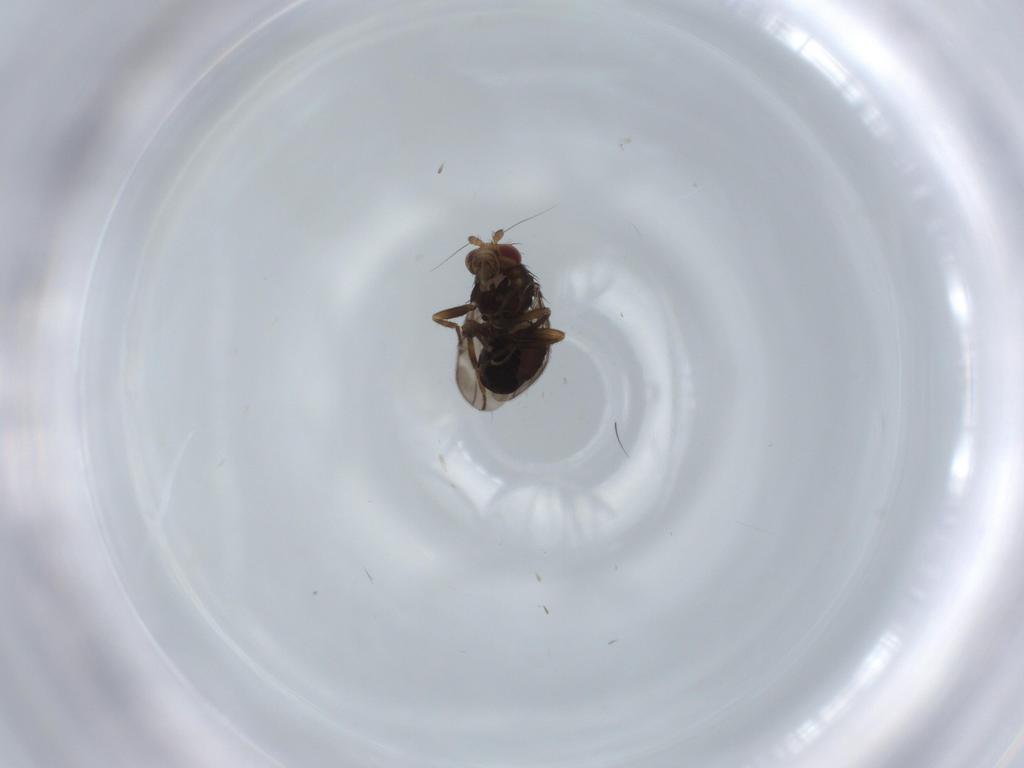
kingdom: Animalia
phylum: Arthropoda
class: Insecta
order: Diptera
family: Sphaeroceridae
